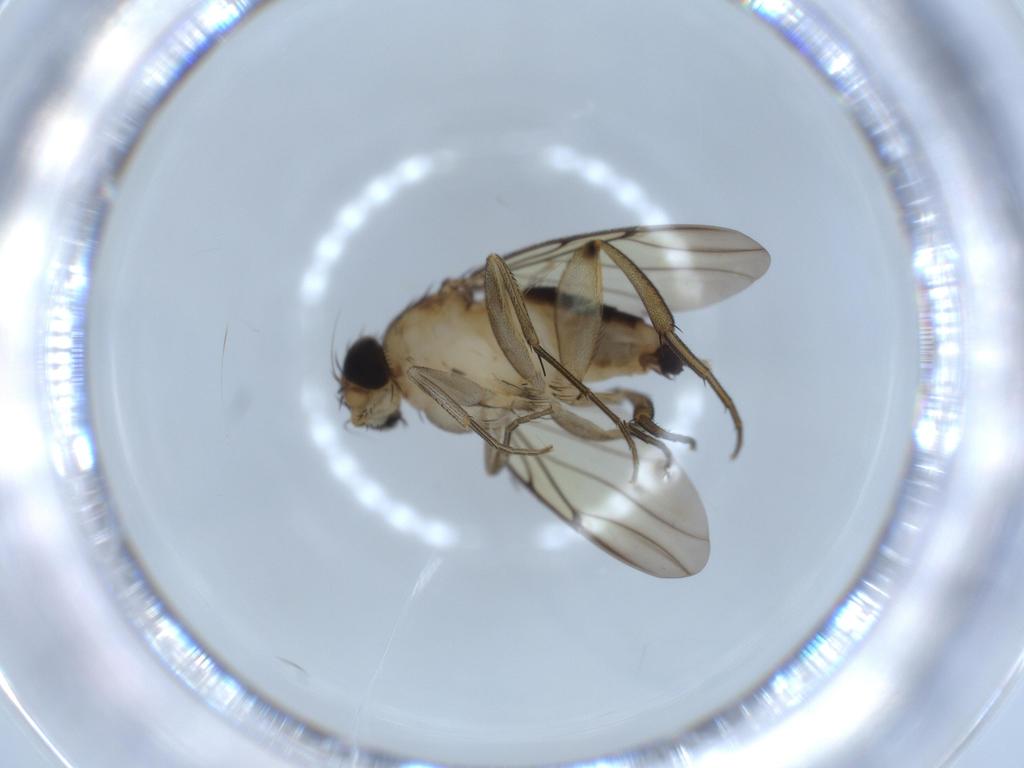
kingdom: Animalia
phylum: Arthropoda
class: Insecta
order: Diptera
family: Phoridae
